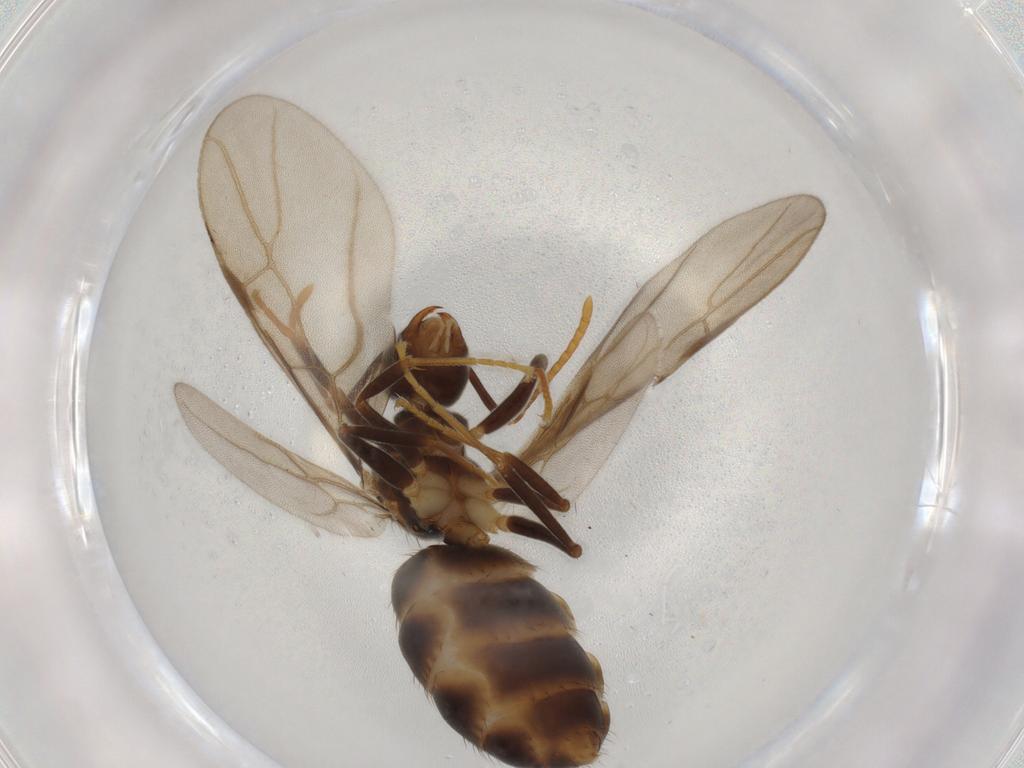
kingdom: Animalia
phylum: Arthropoda
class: Insecta
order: Hymenoptera
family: Formicidae
